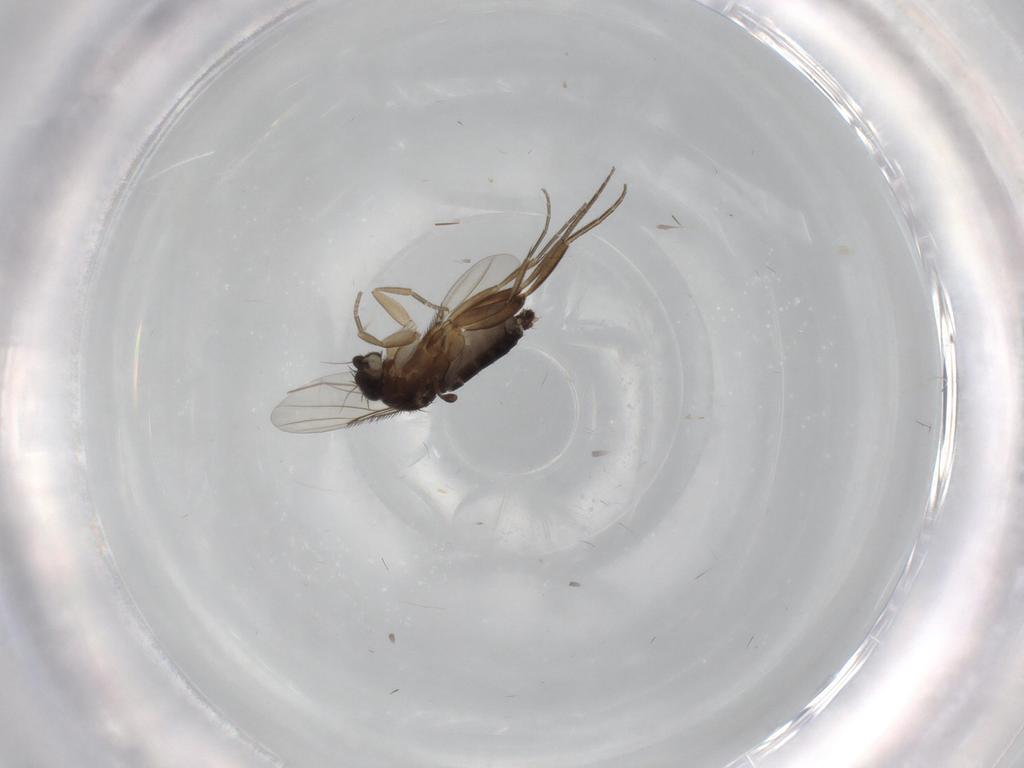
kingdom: Animalia
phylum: Arthropoda
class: Insecta
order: Diptera
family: Phoridae
